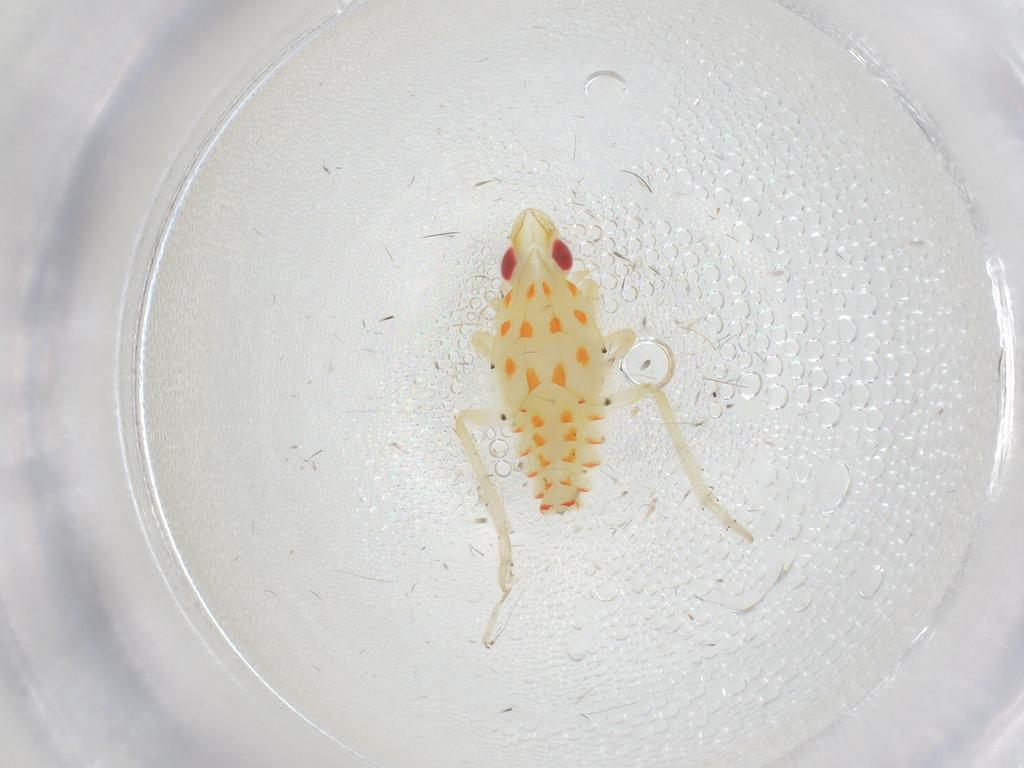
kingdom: Animalia
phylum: Arthropoda
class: Insecta
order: Hemiptera
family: Tropiduchidae
